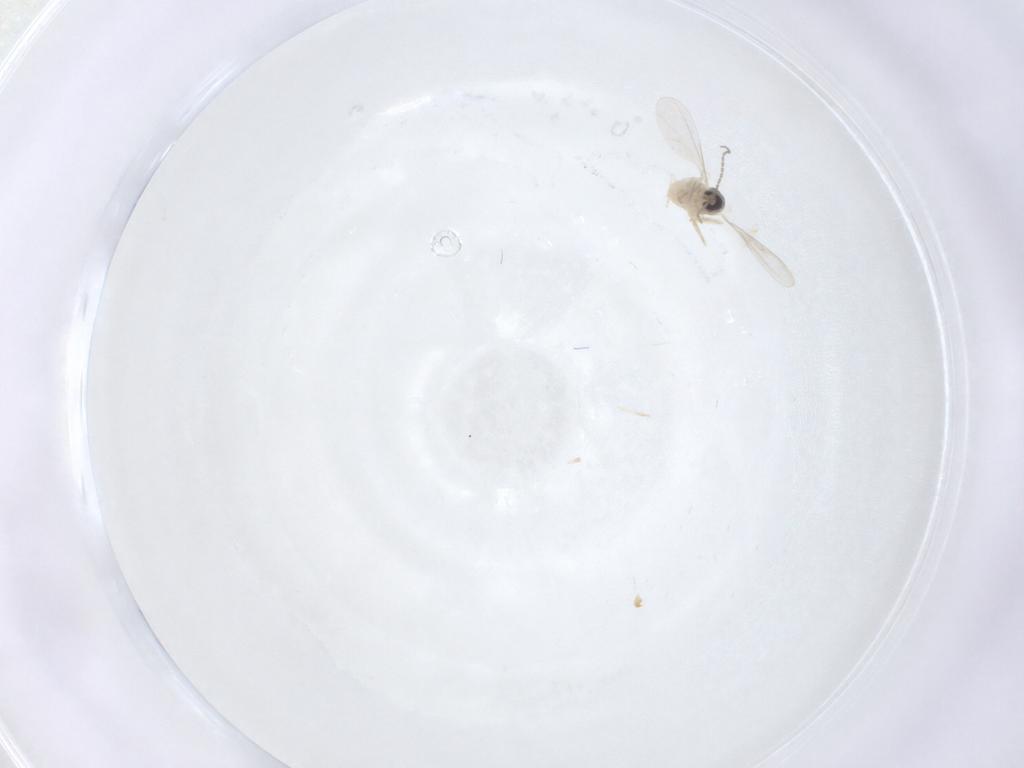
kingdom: Animalia
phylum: Arthropoda
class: Insecta
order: Diptera
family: Cecidomyiidae
